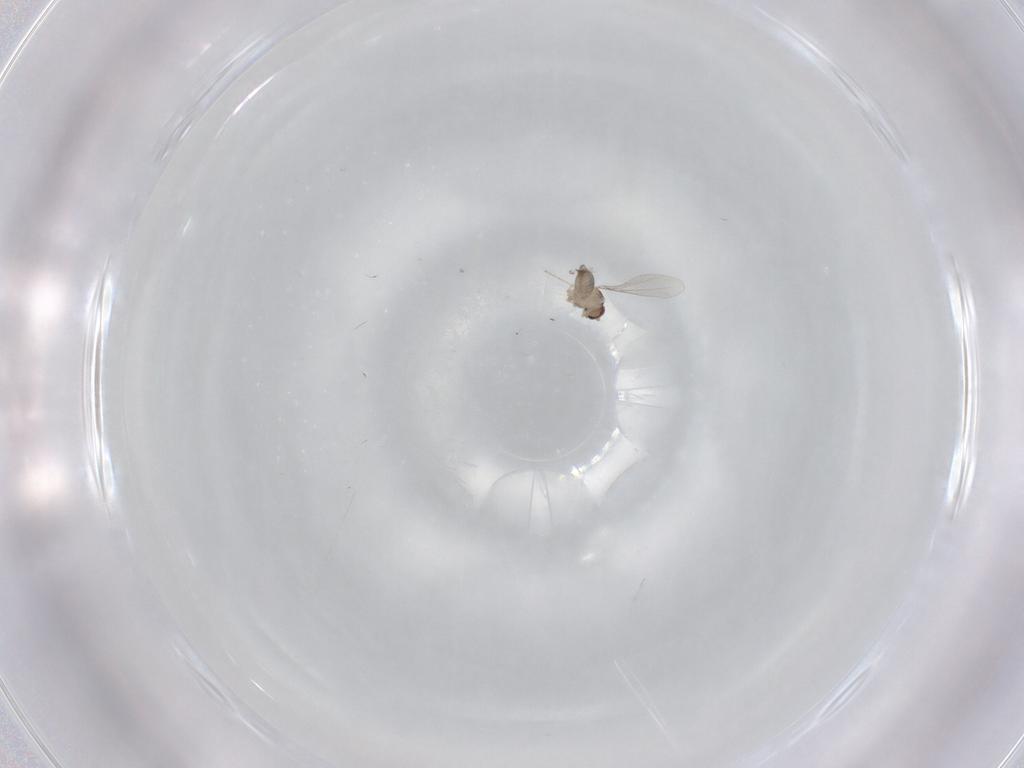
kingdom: Animalia
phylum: Arthropoda
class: Insecta
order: Diptera
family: Cecidomyiidae
